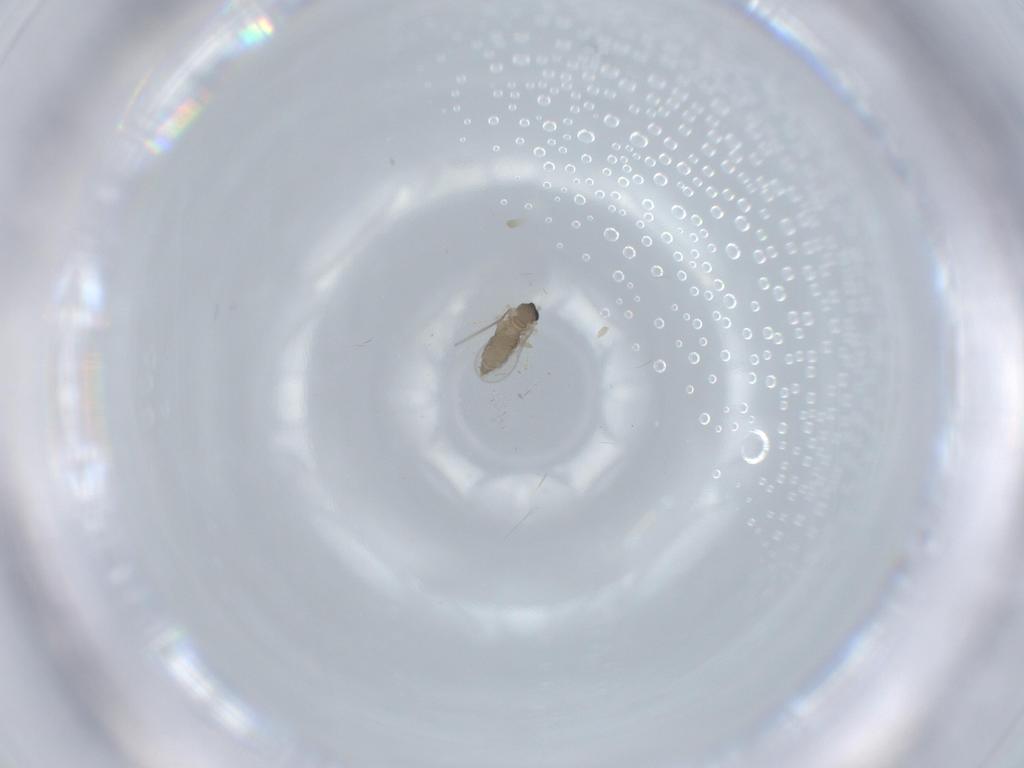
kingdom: Animalia
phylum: Arthropoda
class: Insecta
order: Diptera
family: Cecidomyiidae
